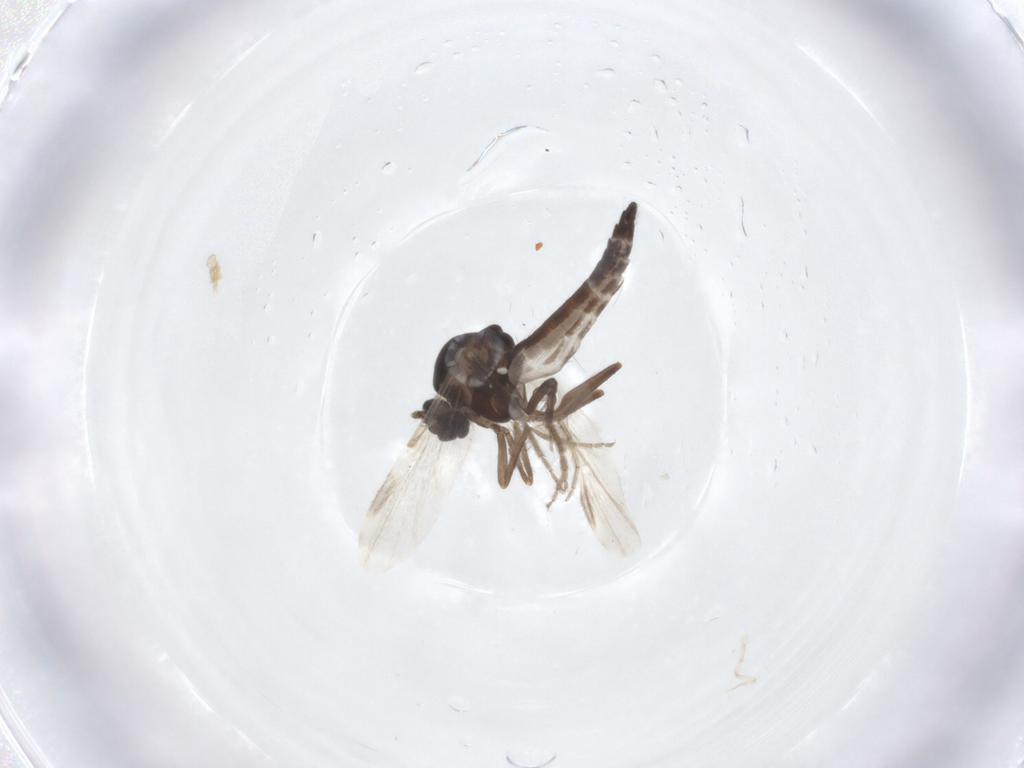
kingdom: Animalia
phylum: Arthropoda
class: Insecta
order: Diptera
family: Ceratopogonidae
